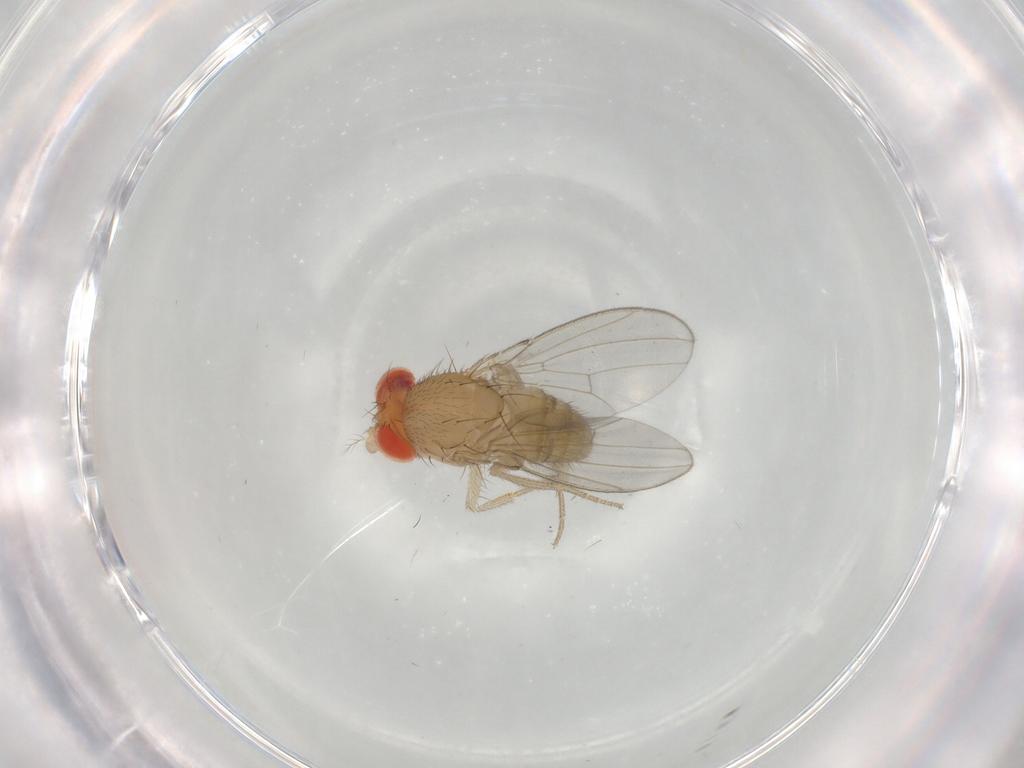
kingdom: Animalia
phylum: Arthropoda
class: Insecta
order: Diptera
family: Drosophilidae
